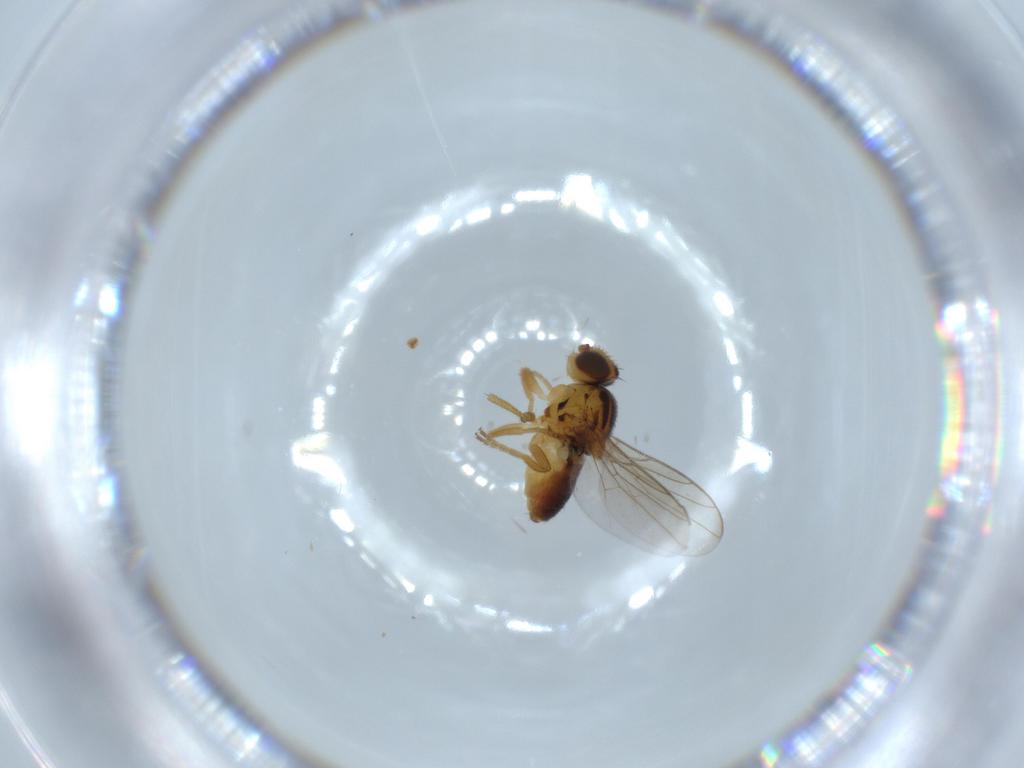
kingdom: Animalia
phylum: Arthropoda
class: Insecta
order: Diptera
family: Chloropidae
